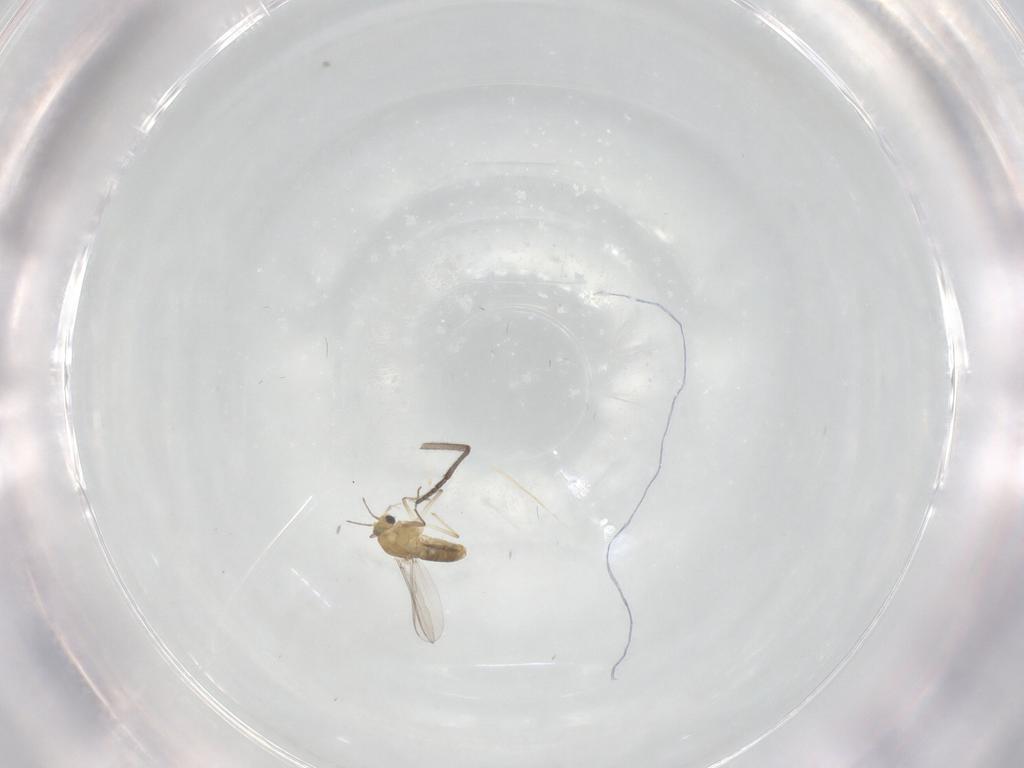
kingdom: Animalia
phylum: Arthropoda
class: Insecta
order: Diptera
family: Chironomidae
